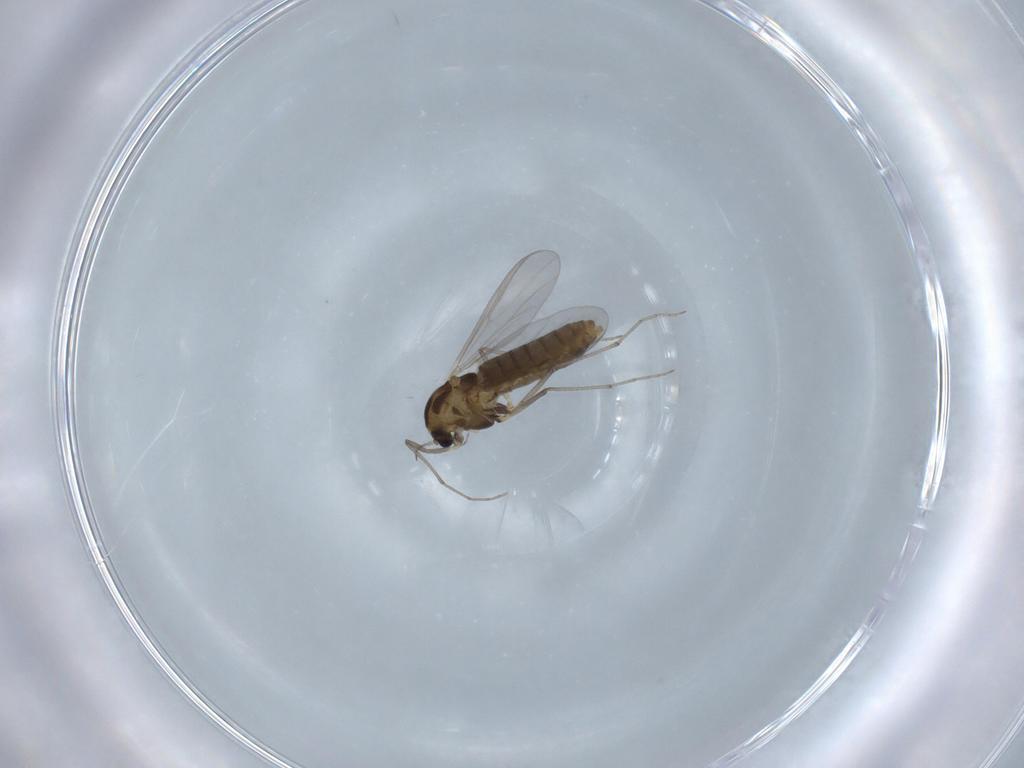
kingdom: Animalia
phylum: Arthropoda
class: Insecta
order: Diptera
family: Chironomidae
